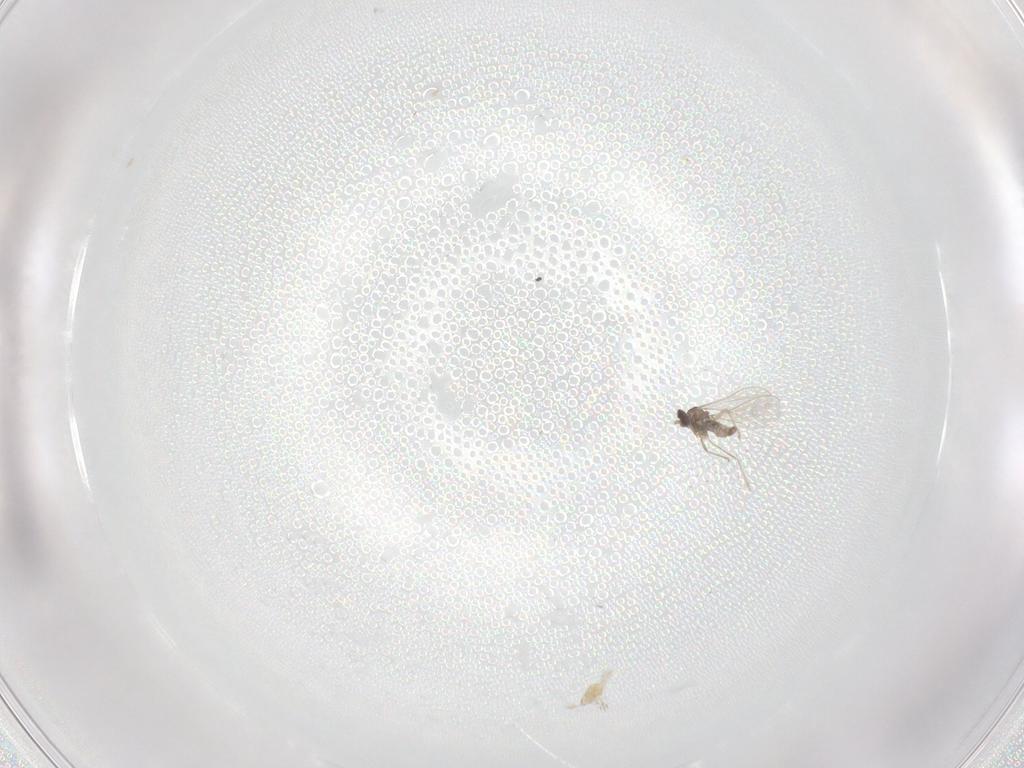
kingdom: Animalia
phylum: Arthropoda
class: Insecta
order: Diptera
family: Cecidomyiidae
